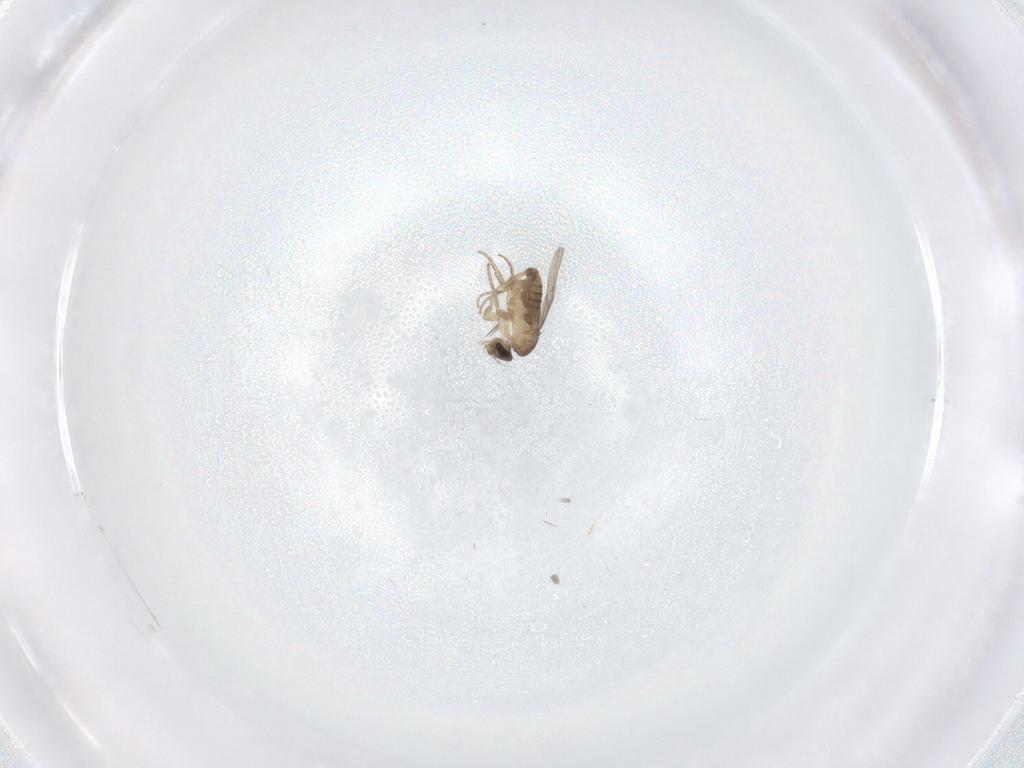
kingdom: Animalia
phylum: Arthropoda
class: Insecta
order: Diptera
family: Phoridae
